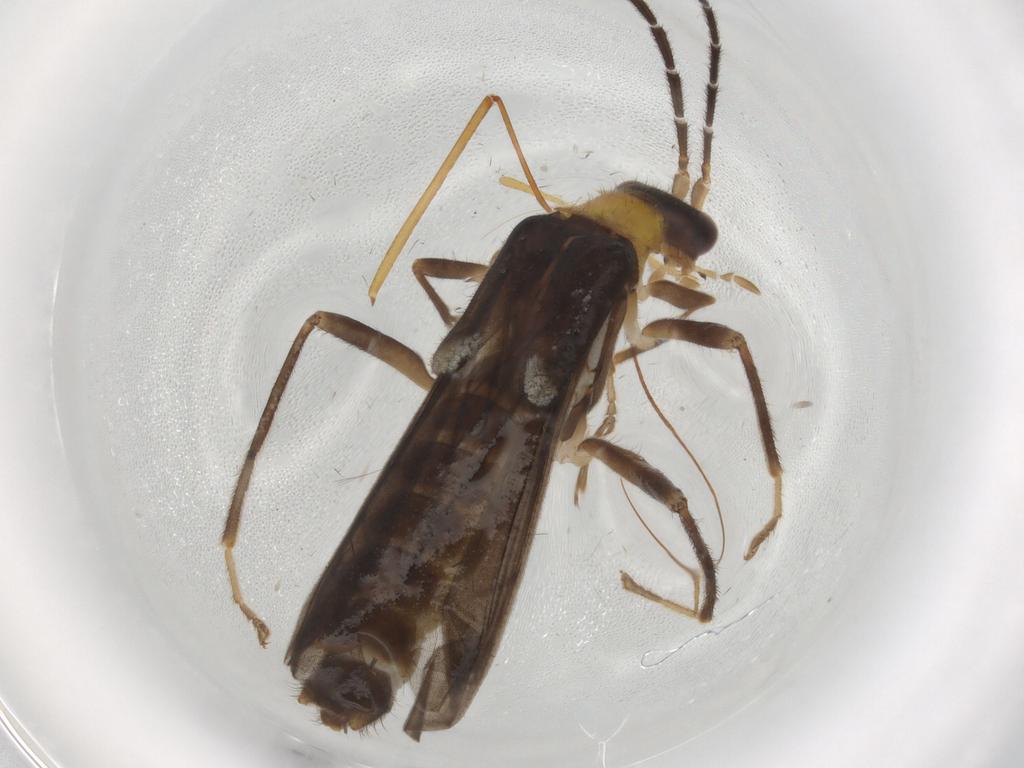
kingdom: Animalia
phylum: Arthropoda
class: Insecta
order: Coleoptera
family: Cantharidae
